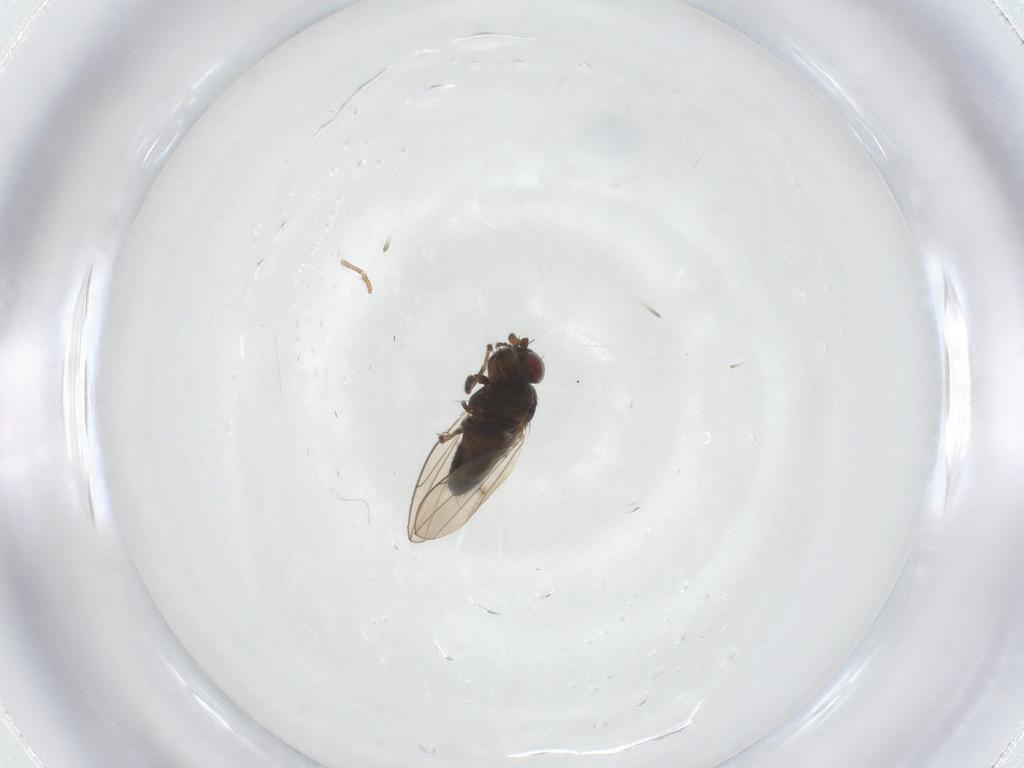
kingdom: Animalia
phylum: Arthropoda
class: Insecta
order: Diptera
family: Chironomidae
